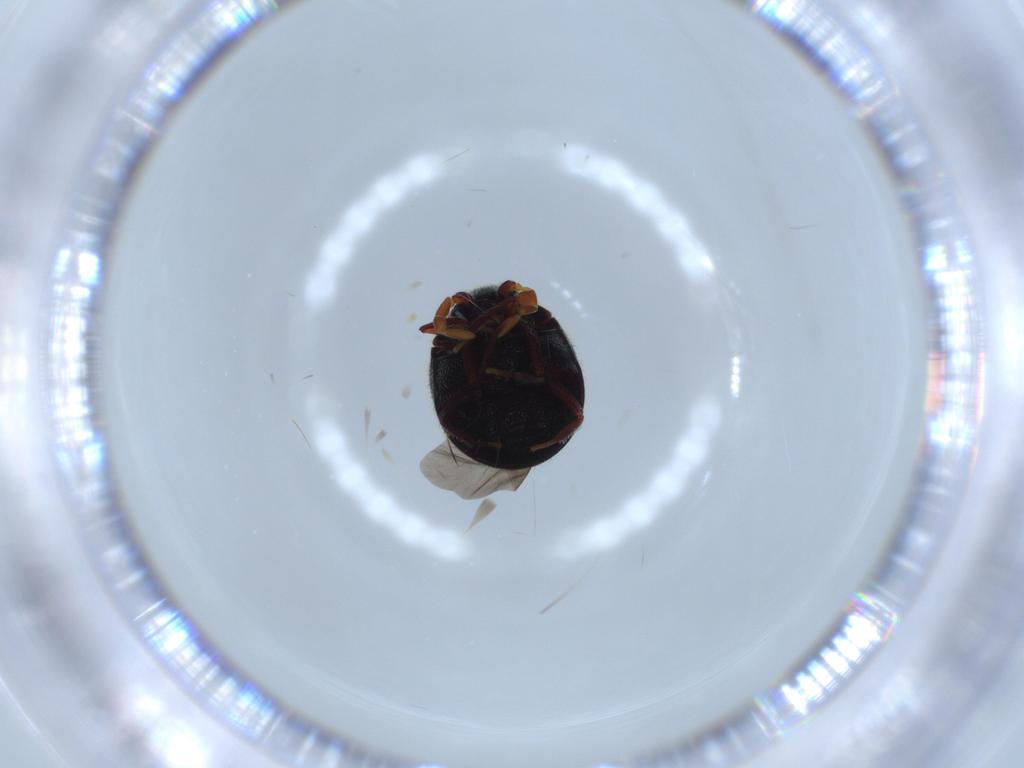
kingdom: Animalia
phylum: Arthropoda
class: Insecta
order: Coleoptera
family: Ptinidae
